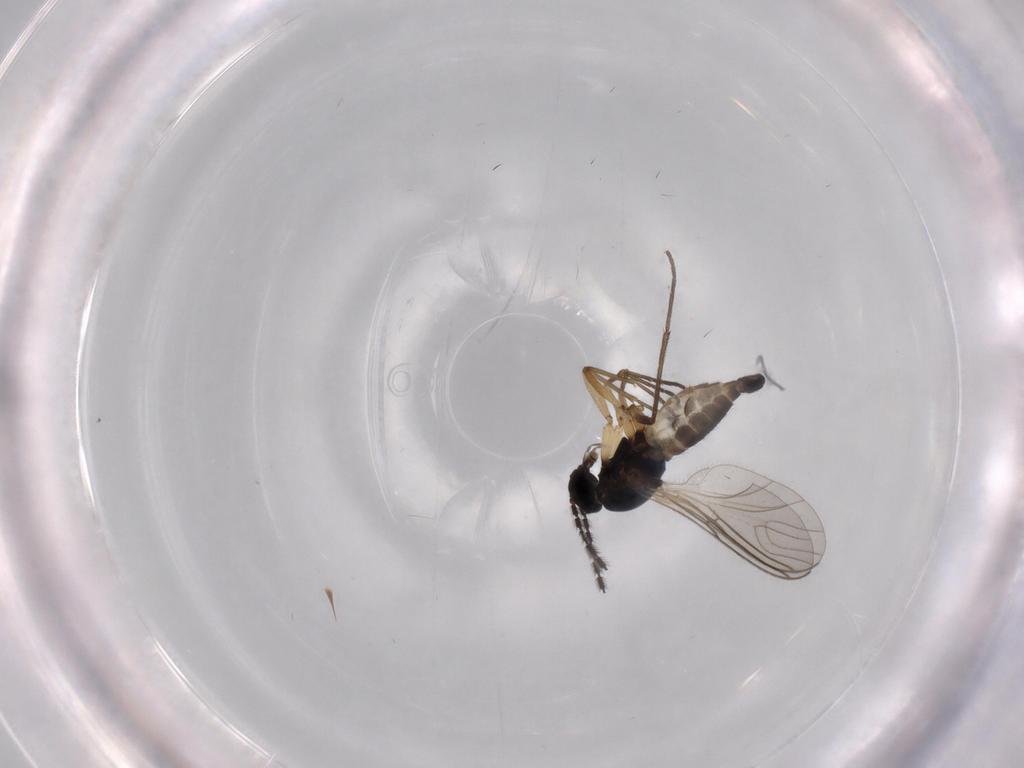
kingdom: Animalia
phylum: Arthropoda
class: Insecta
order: Diptera
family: Sciaridae
